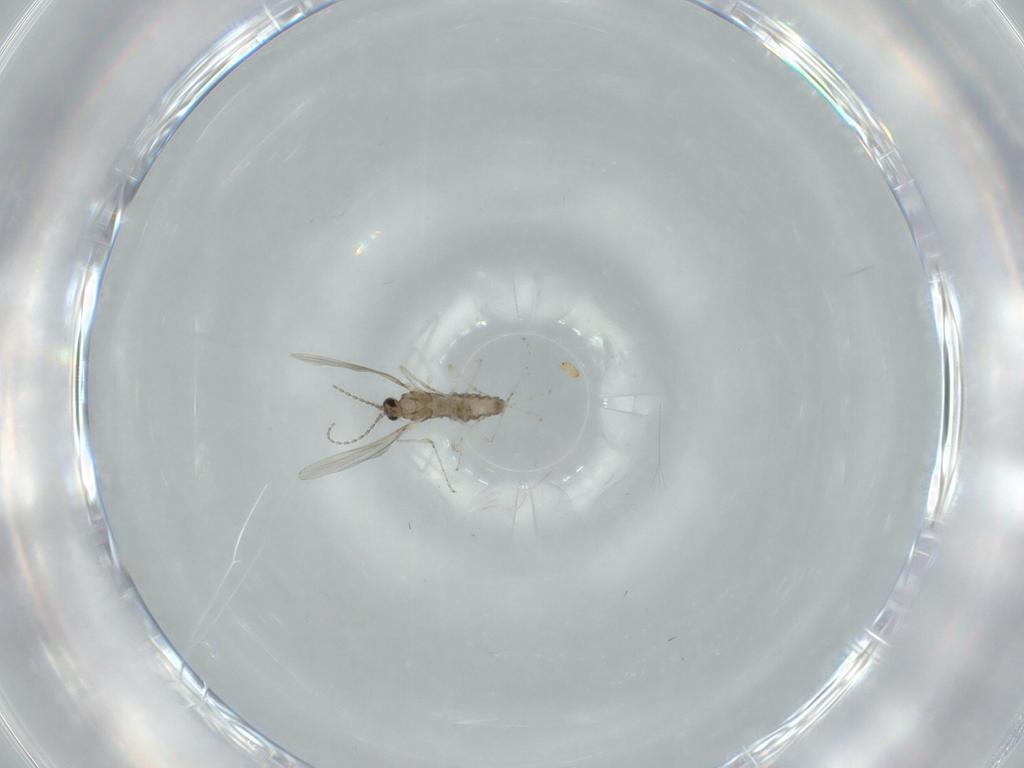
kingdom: Animalia
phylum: Arthropoda
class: Insecta
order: Diptera
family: Cecidomyiidae
